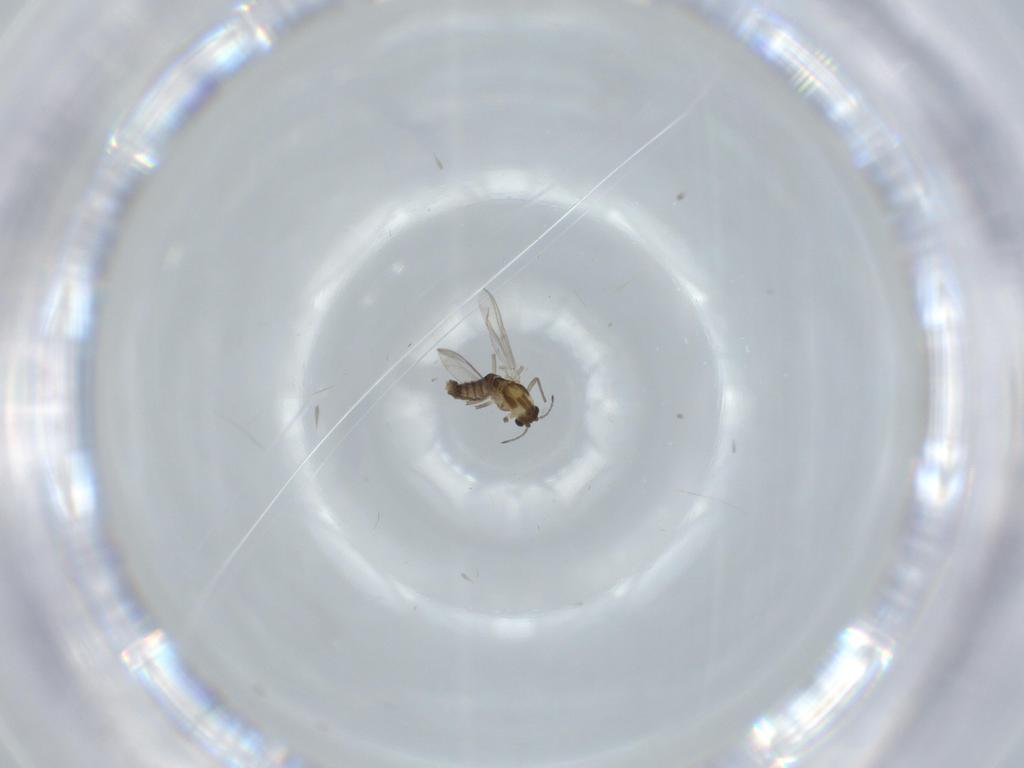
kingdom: Animalia
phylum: Arthropoda
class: Insecta
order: Diptera
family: Chironomidae
